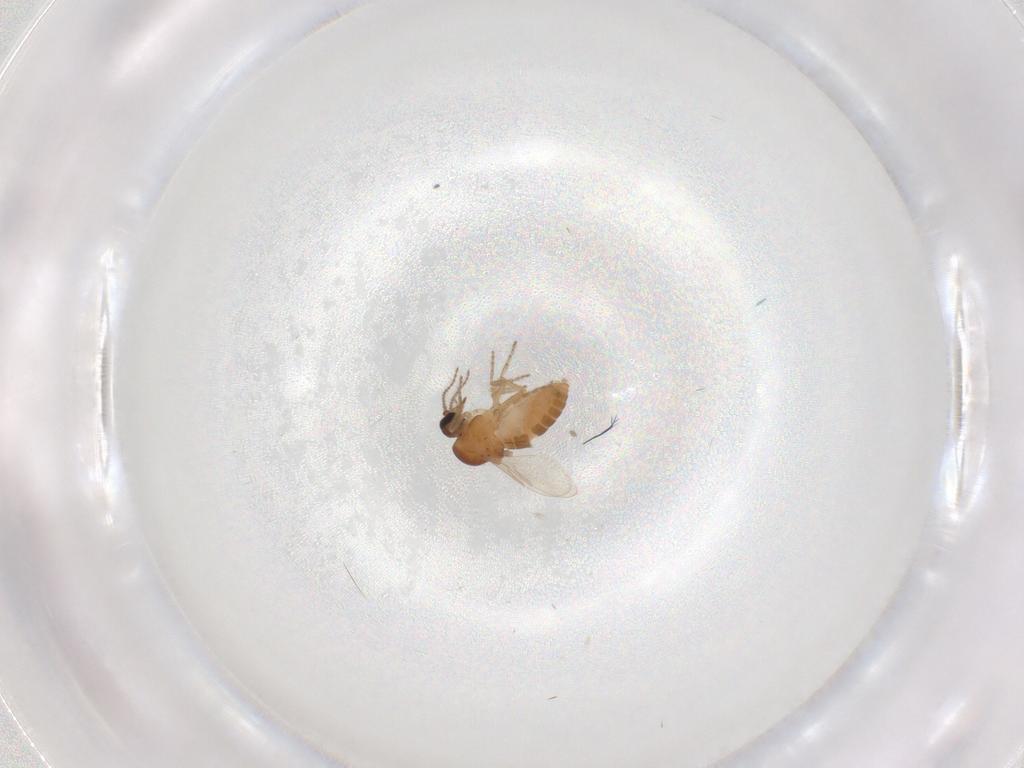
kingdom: Animalia
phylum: Arthropoda
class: Insecta
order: Diptera
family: Ceratopogonidae
